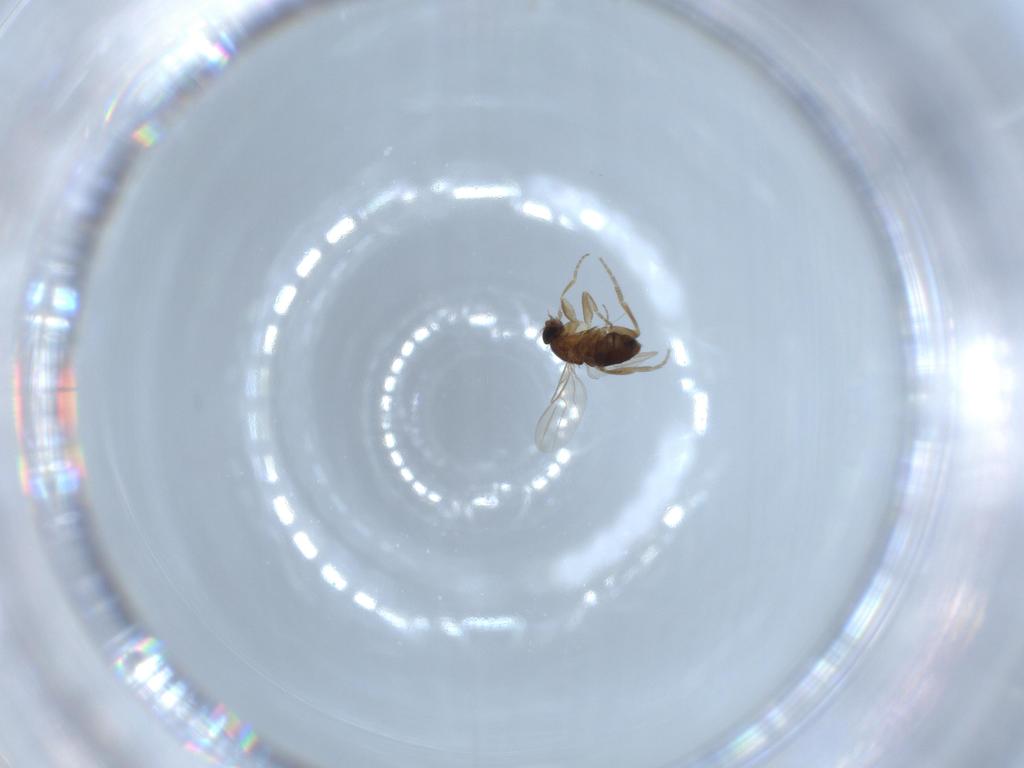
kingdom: Animalia
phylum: Arthropoda
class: Insecta
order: Diptera
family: Phoridae
